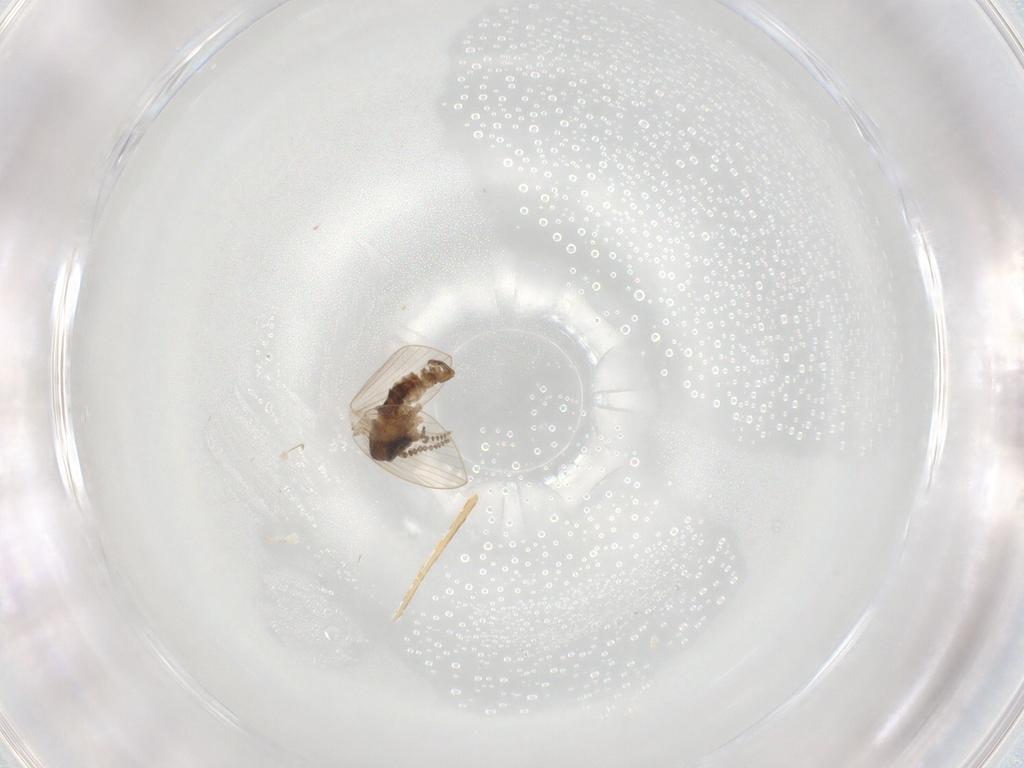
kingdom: Animalia
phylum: Arthropoda
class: Insecta
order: Diptera
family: Psychodidae
